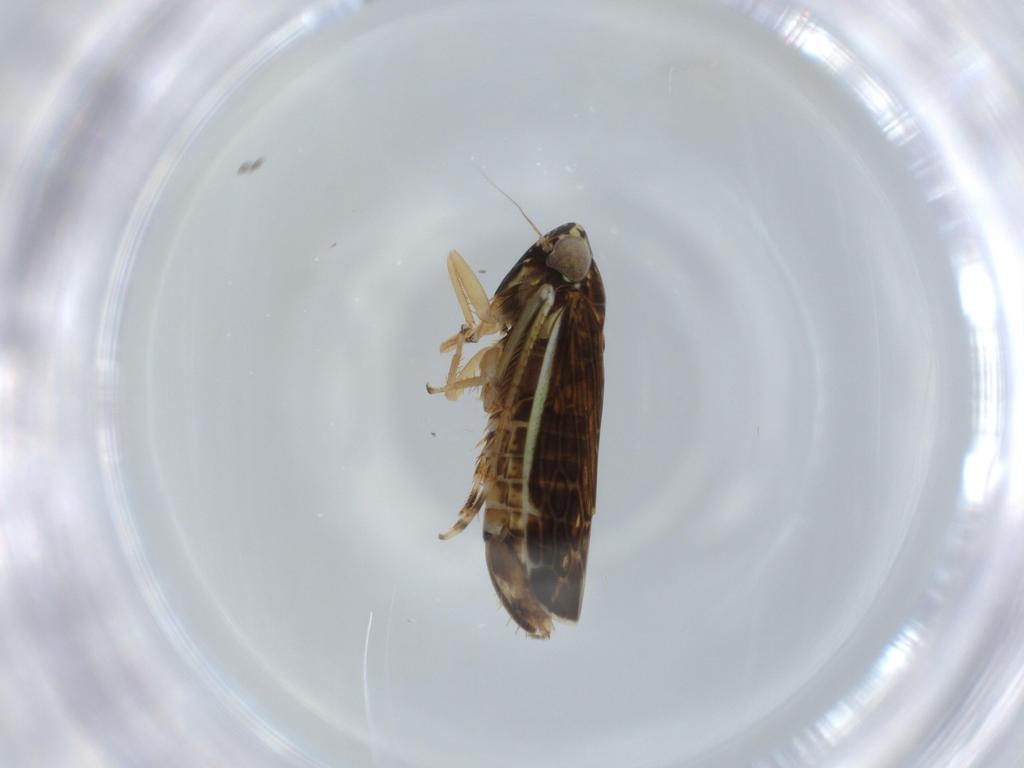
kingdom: Animalia
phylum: Arthropoda
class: Insecta
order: Hemiptera
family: Cicadellidae
